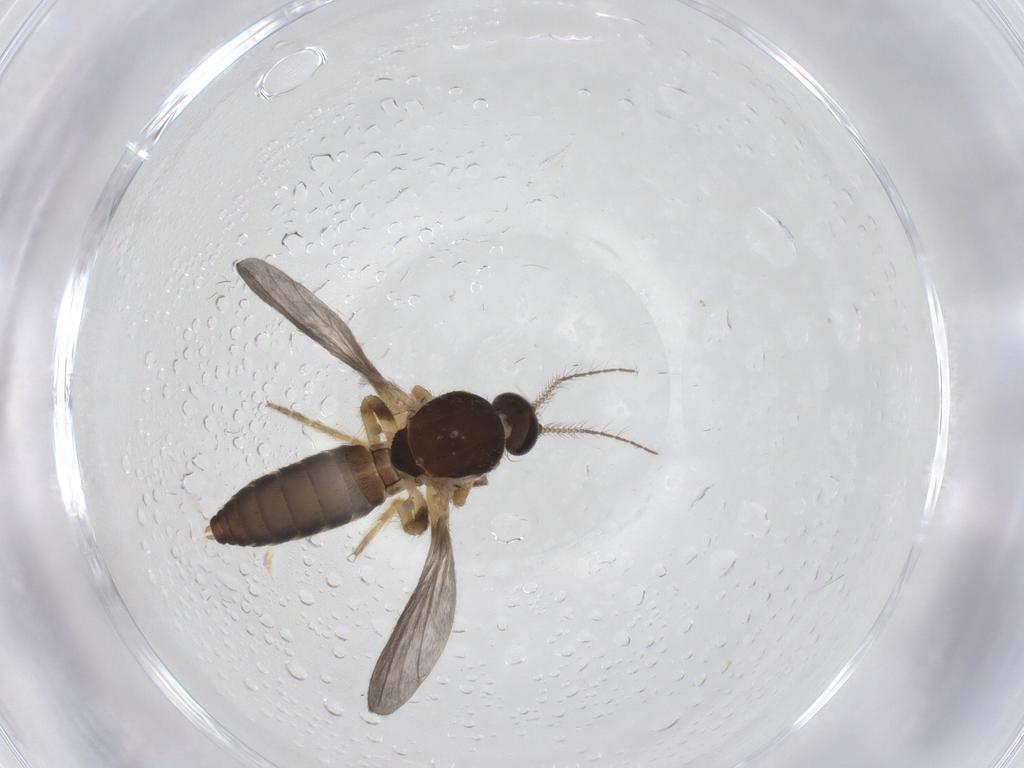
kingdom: Animalia
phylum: Arthropoda
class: Insecta
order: Diptera
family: Ceratopogonidae
